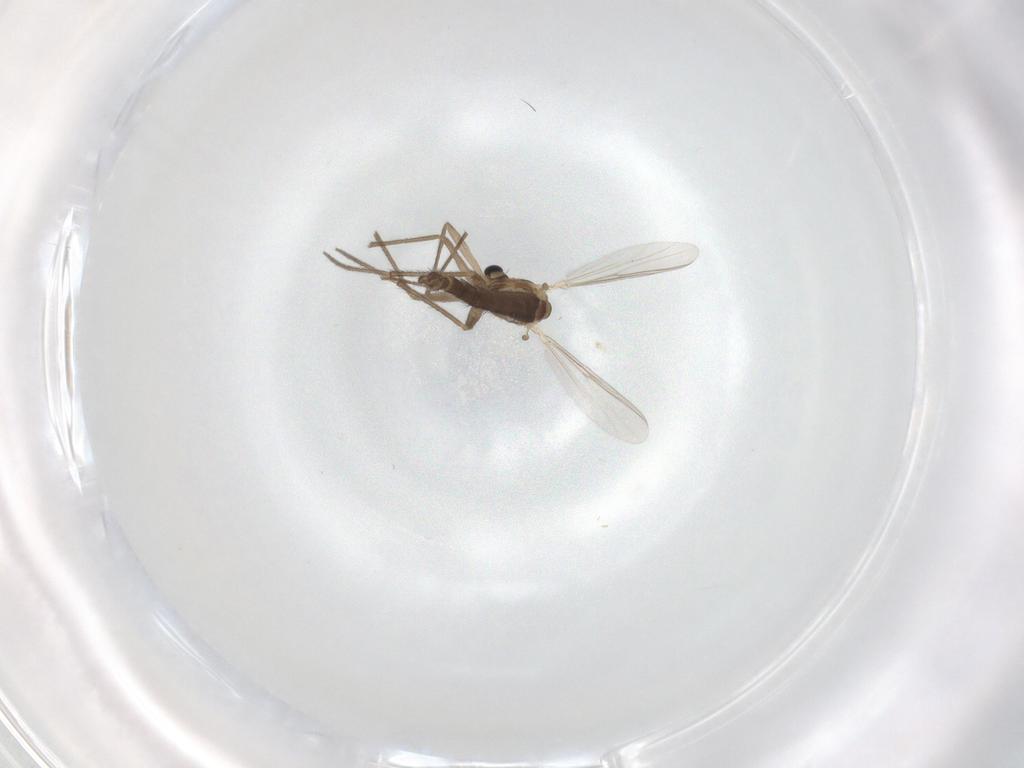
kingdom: Animalia
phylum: Arthropoda
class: Insecta
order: Diptera
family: Chironomidae
